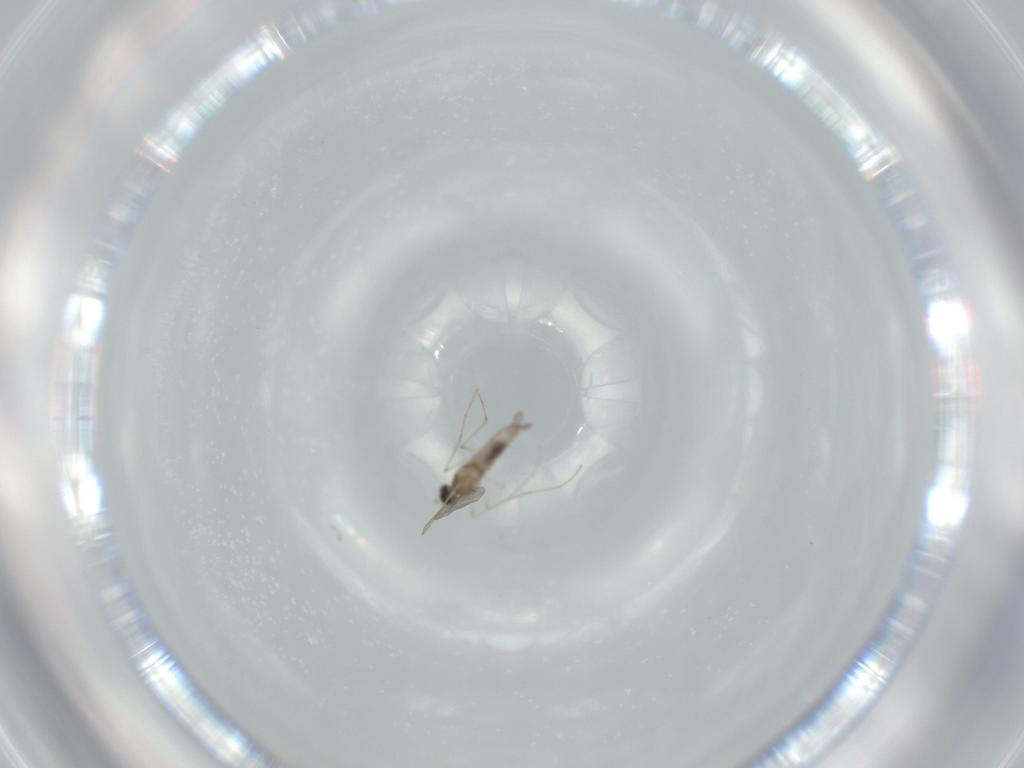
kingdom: Animalia
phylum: Arthropoda
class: Insecta
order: Diptera
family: Cecidomyiidae
